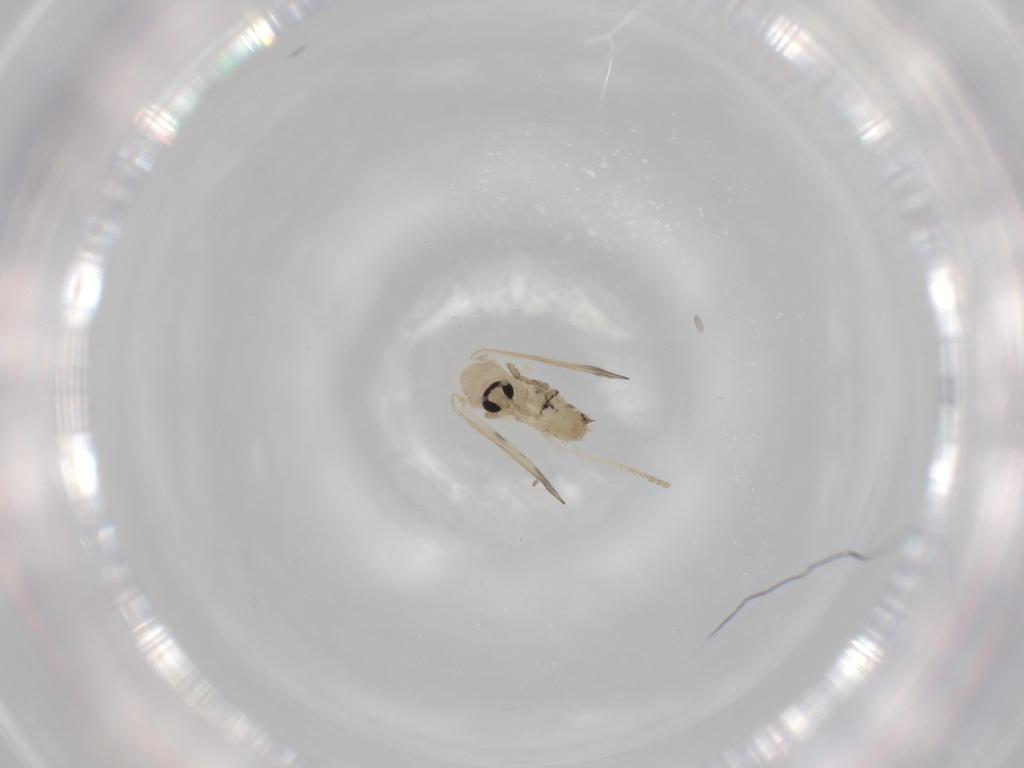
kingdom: Animalia
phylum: Arthropoda
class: Insecta
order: Diptera
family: Cecidomyiidae
